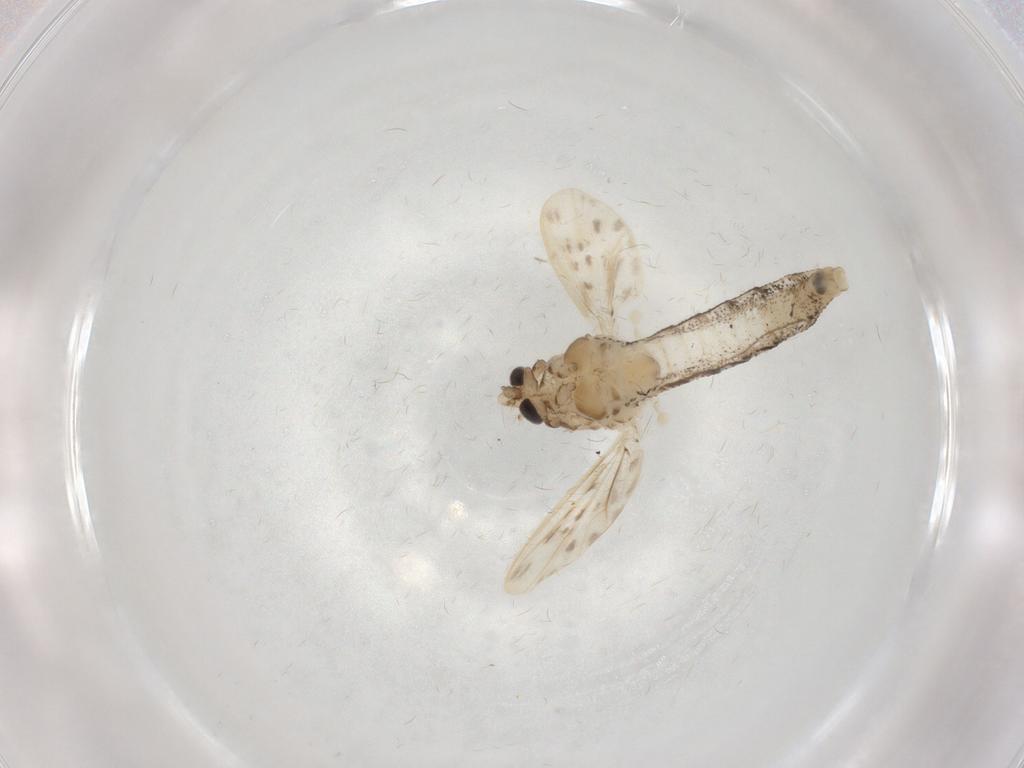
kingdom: Animalia
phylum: Arthropoda
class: Insecta
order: Diptera
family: Chaoboridae
